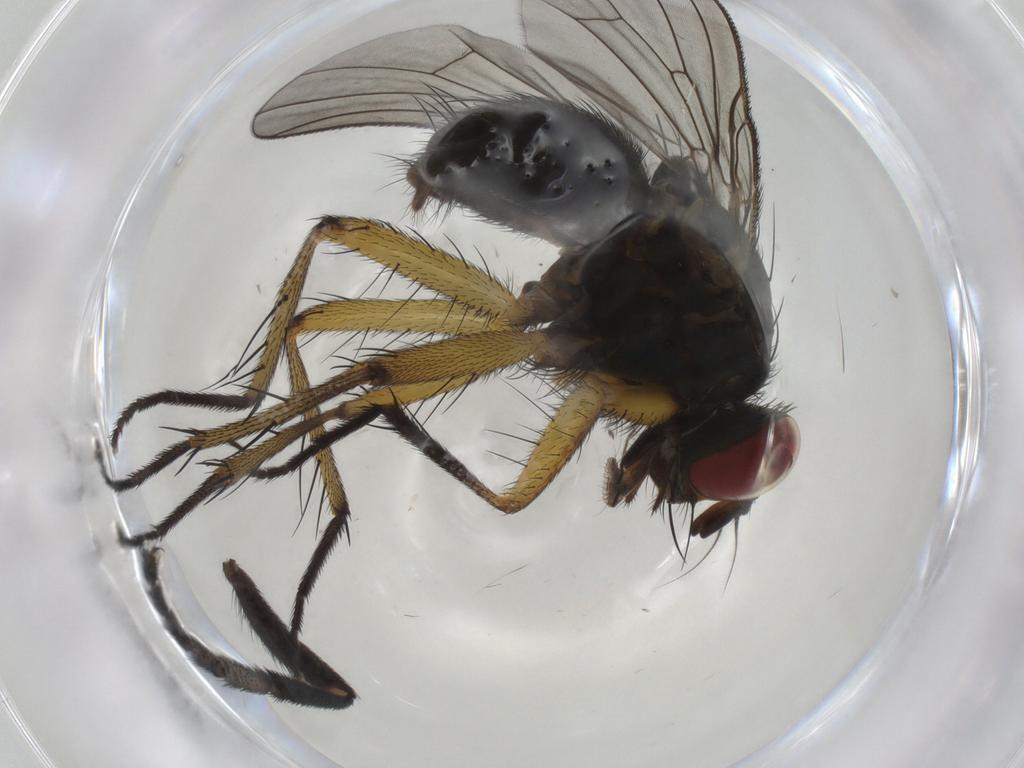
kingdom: Animalia
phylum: Arthropoda
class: Insecta
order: Diptera
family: Muscidae
